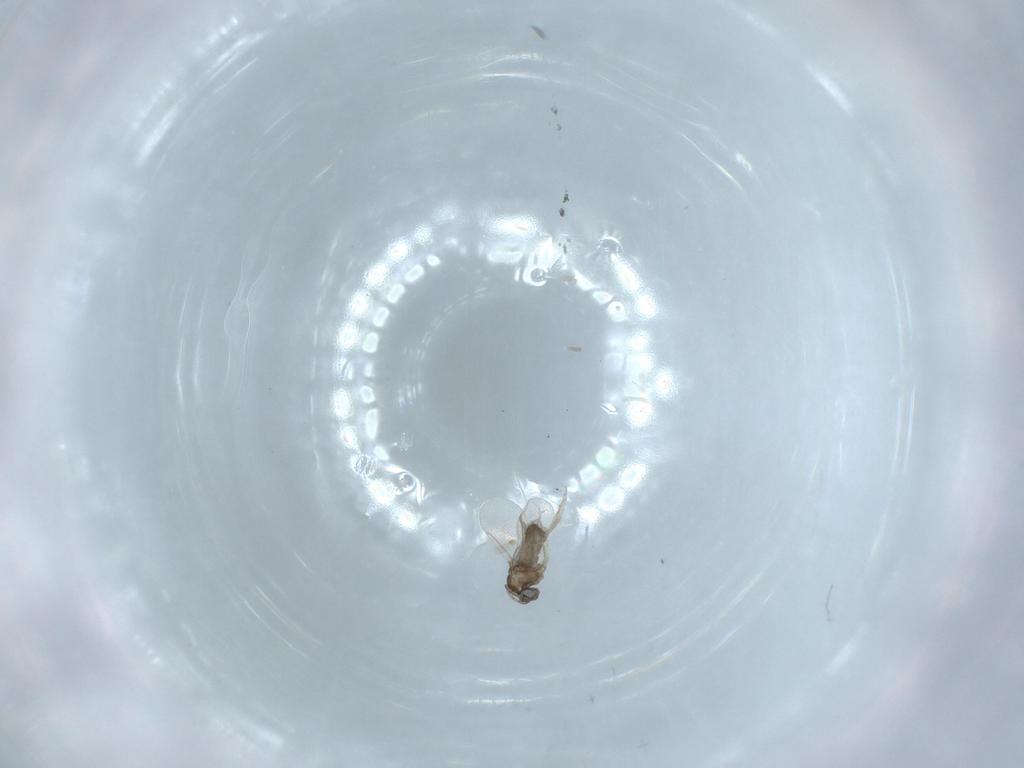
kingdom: Animalia
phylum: Arthropoda
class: Insecta
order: Diptera
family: Cecidomyiidae
